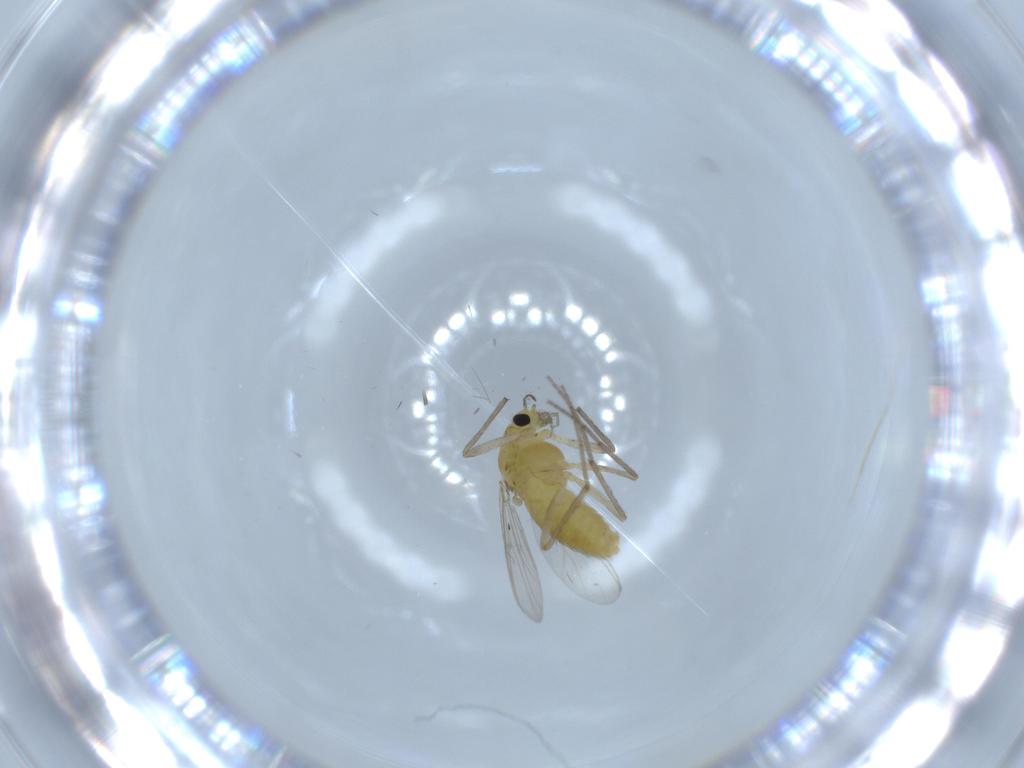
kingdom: Animalia
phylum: Arthropoda
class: Insecta
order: Diptera
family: Chironomidae
